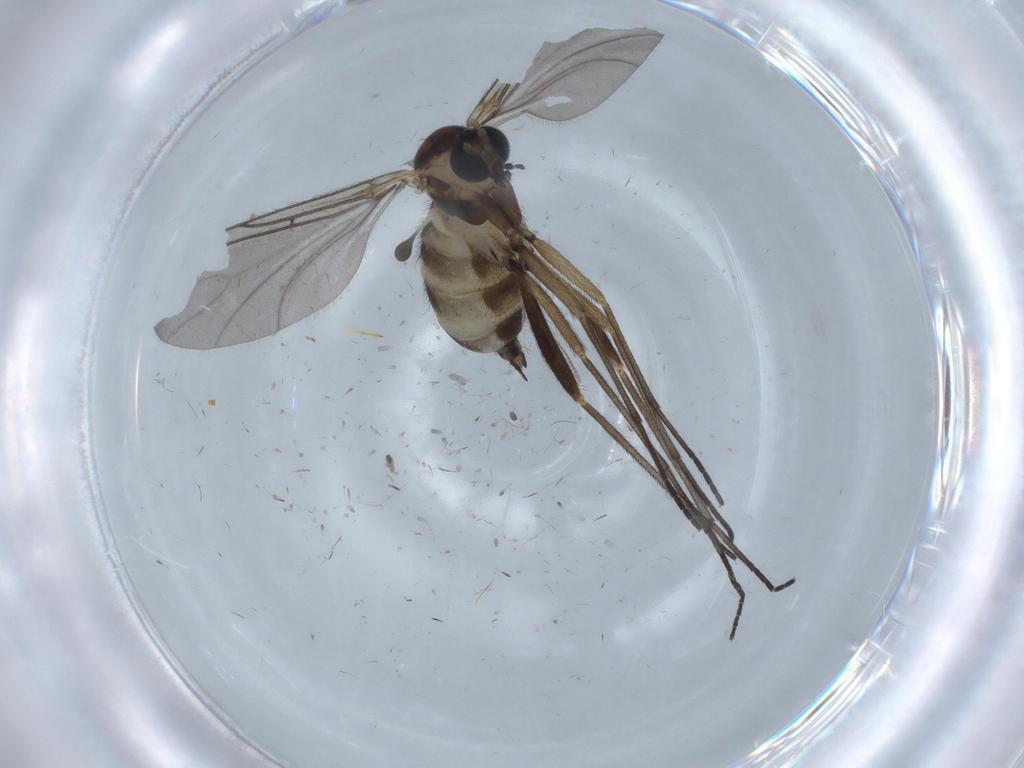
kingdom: Animalia
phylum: Arthropoda
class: Insecta
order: Diptera
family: Sciaridae
